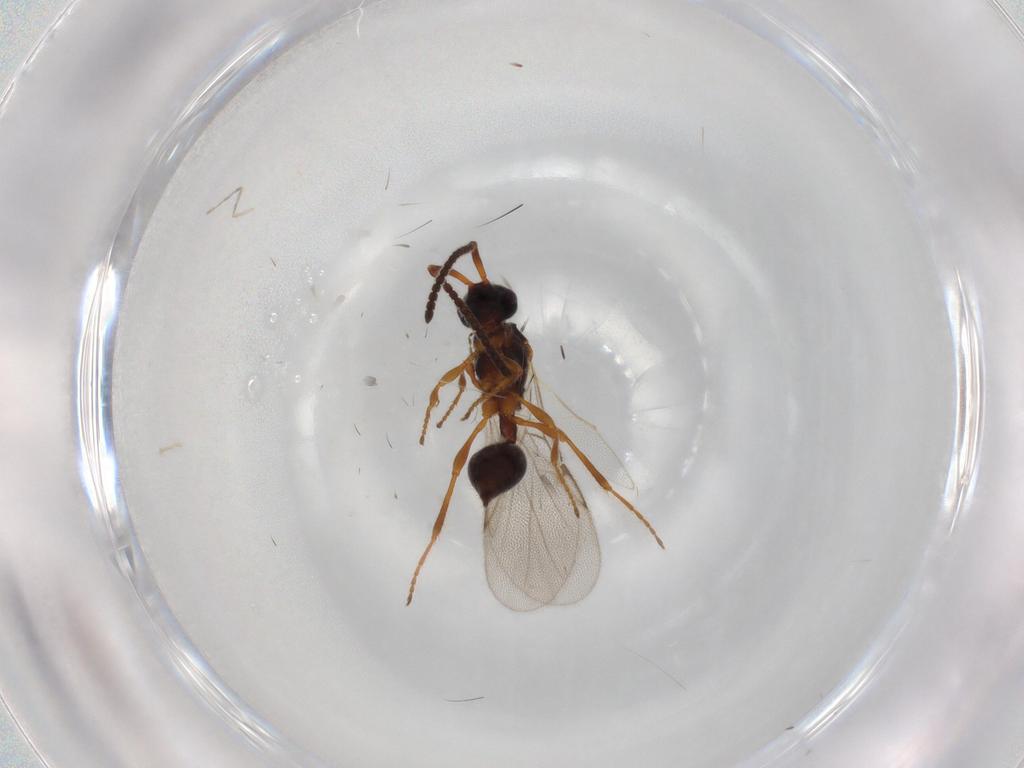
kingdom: Animalia
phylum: Arthropoda
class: Insecta
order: Hymenoptera
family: Diapriidae
